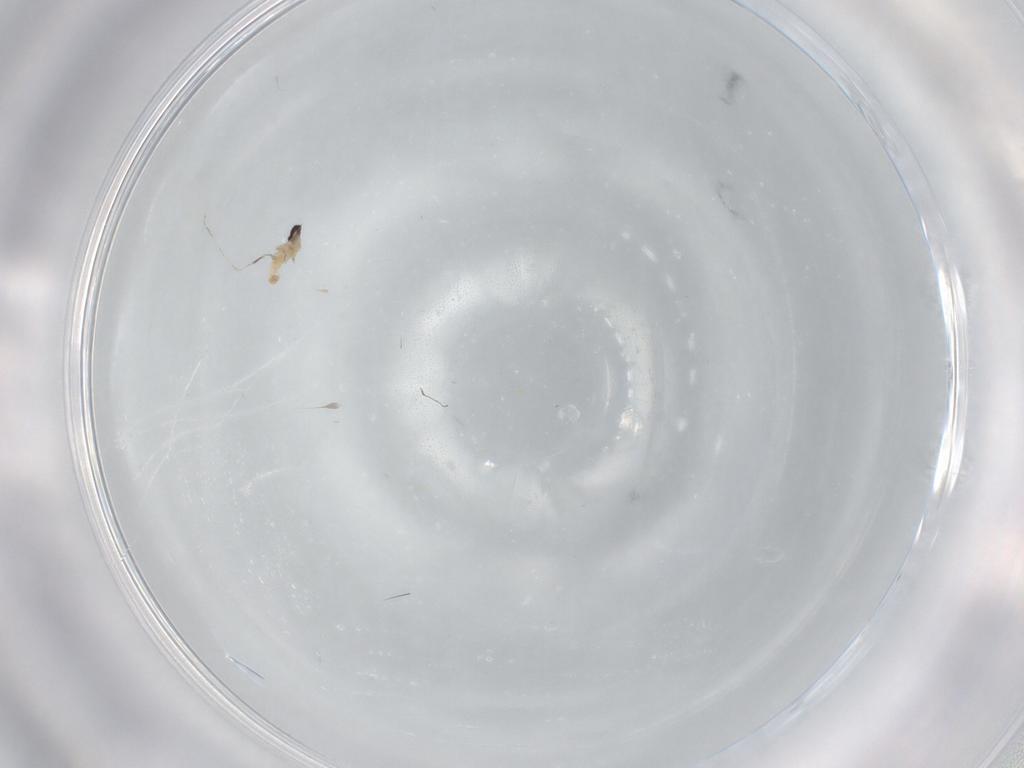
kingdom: Animalia
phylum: Arthropoda
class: Insecta
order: Diptera
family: Cecidomyiidae
